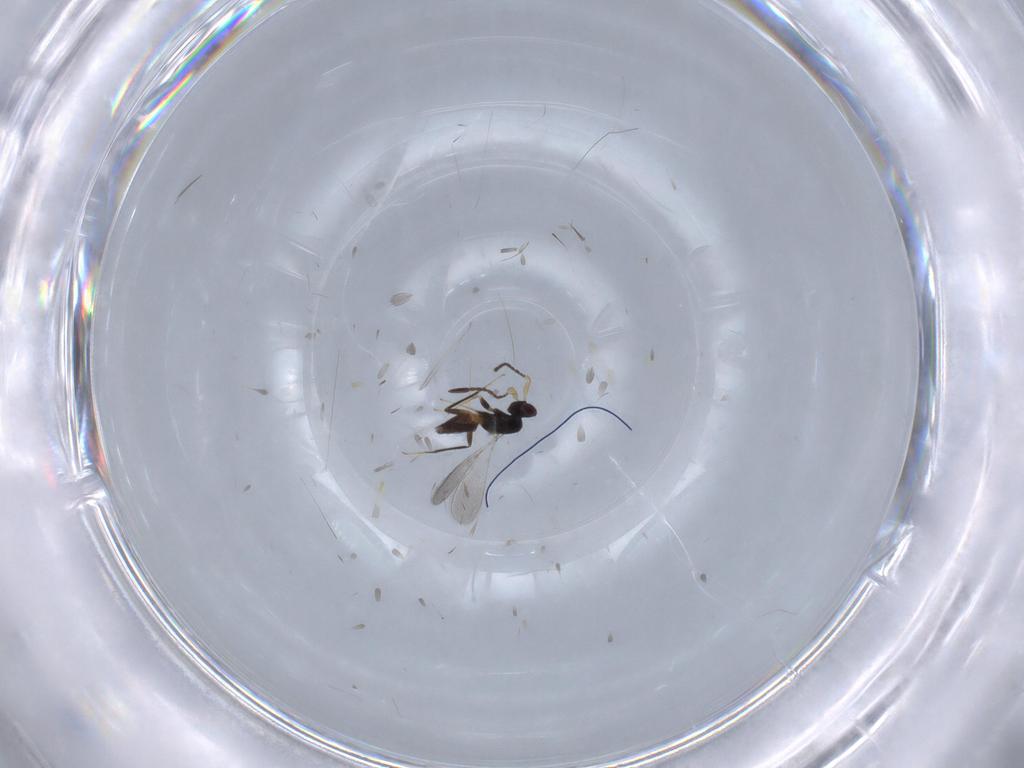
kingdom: Animalia
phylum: Arthropoda
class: Insecta
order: Hymenoptera
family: Mymaridae
